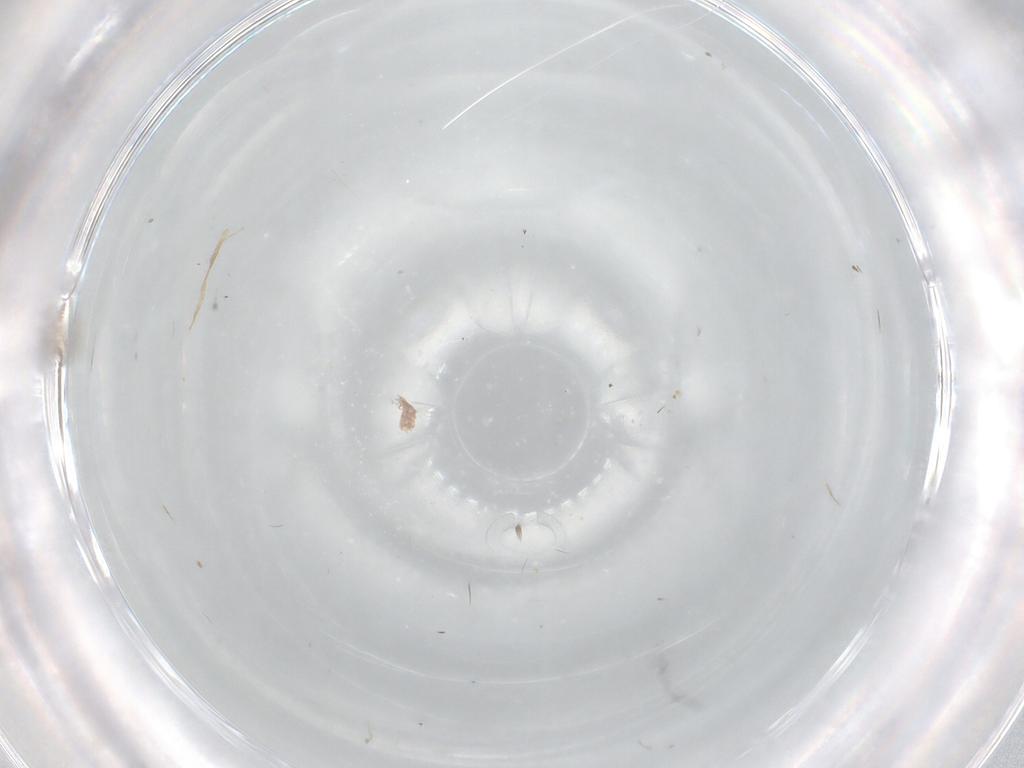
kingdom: Animalia
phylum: Arthropoda
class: Insecta
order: Diptera
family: Cecidomyiidae
